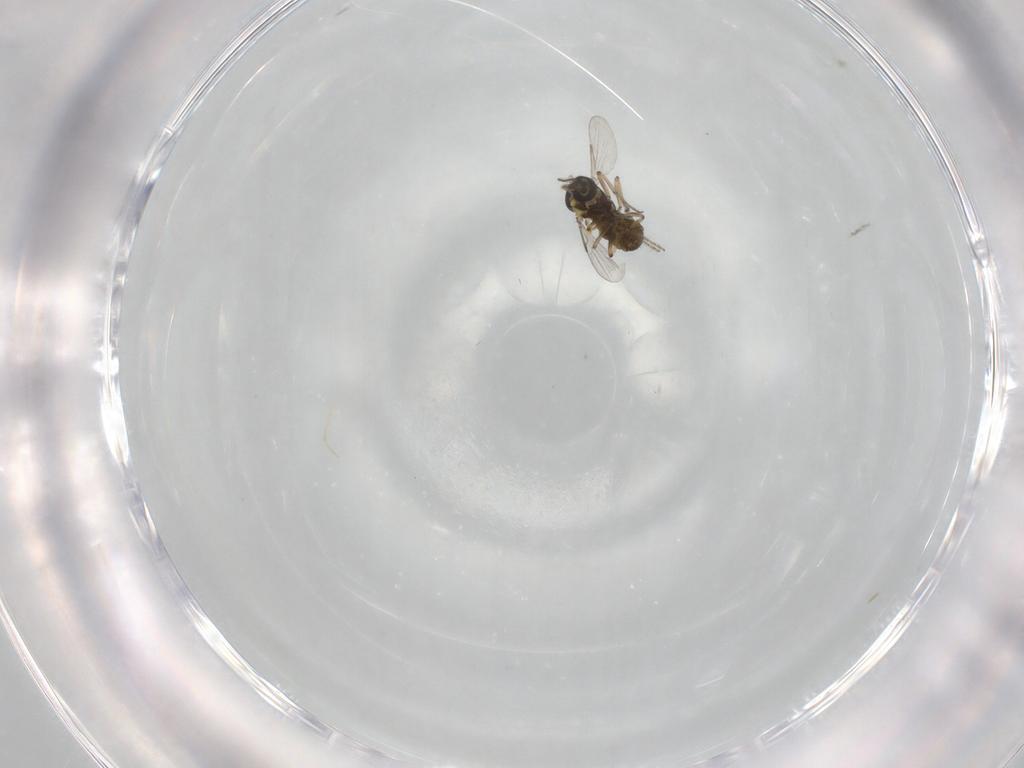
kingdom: Animalia
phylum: Arthropoda
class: Insecta
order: Diptera
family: Ceratopogonidae
